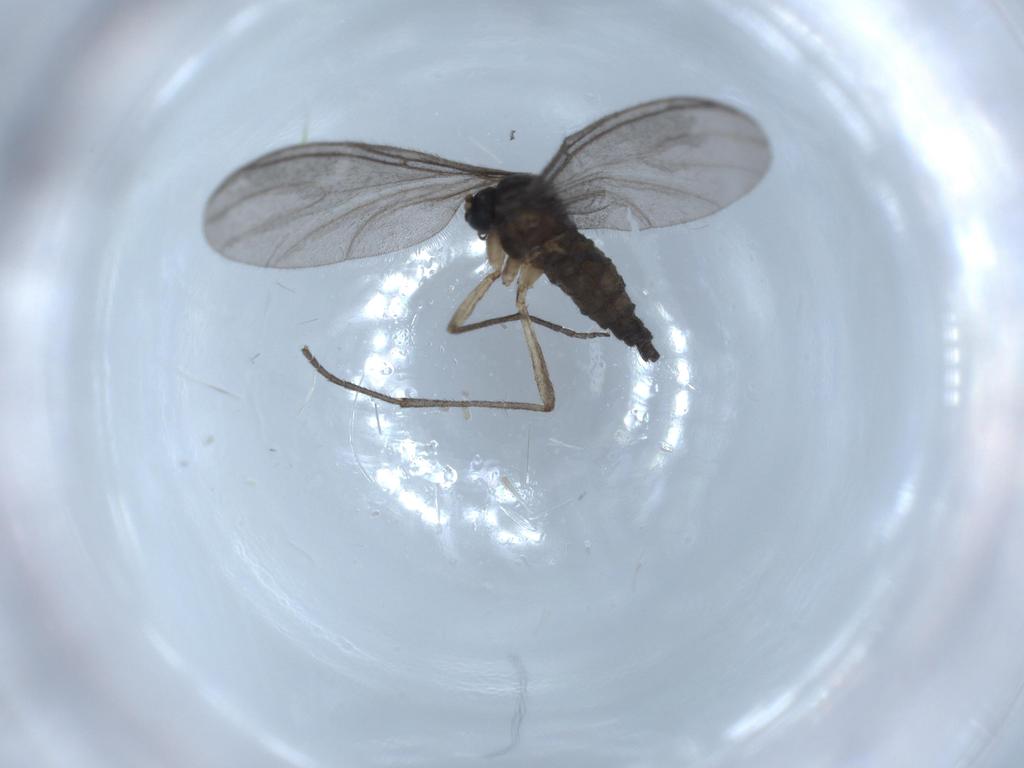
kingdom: Animalia
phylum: Arthropoda
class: Insecta
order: Diptera
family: Sciaridae
